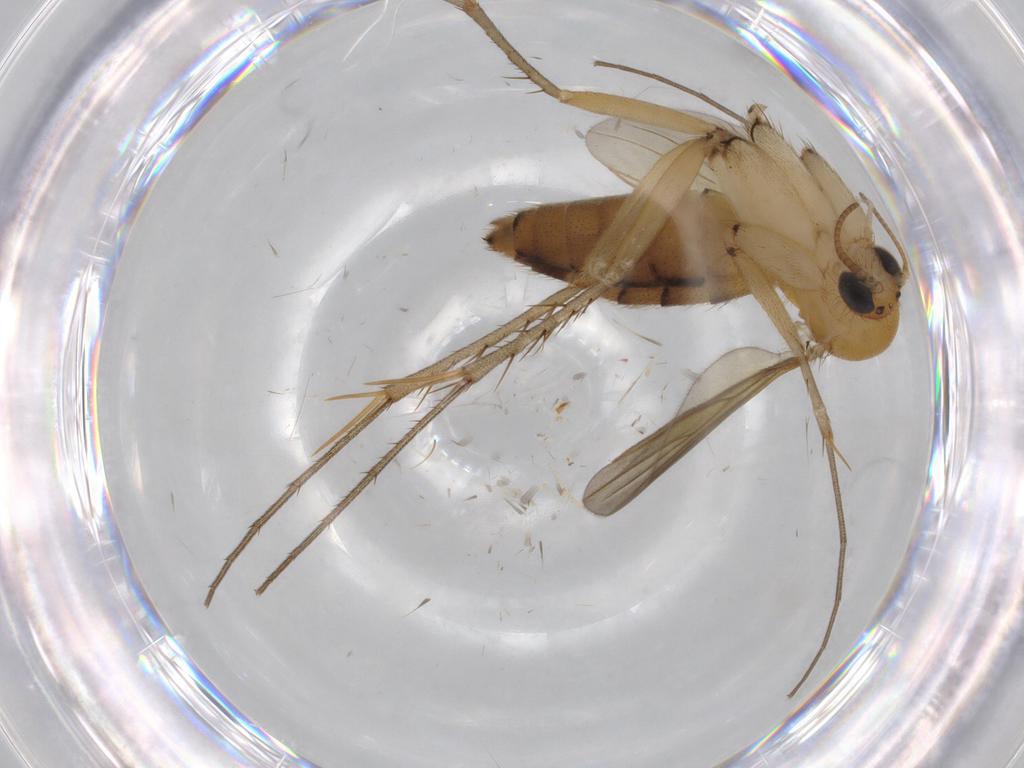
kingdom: Animalia
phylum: Arthropoda
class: Insecta
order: Diptera
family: Mycetophilidae
